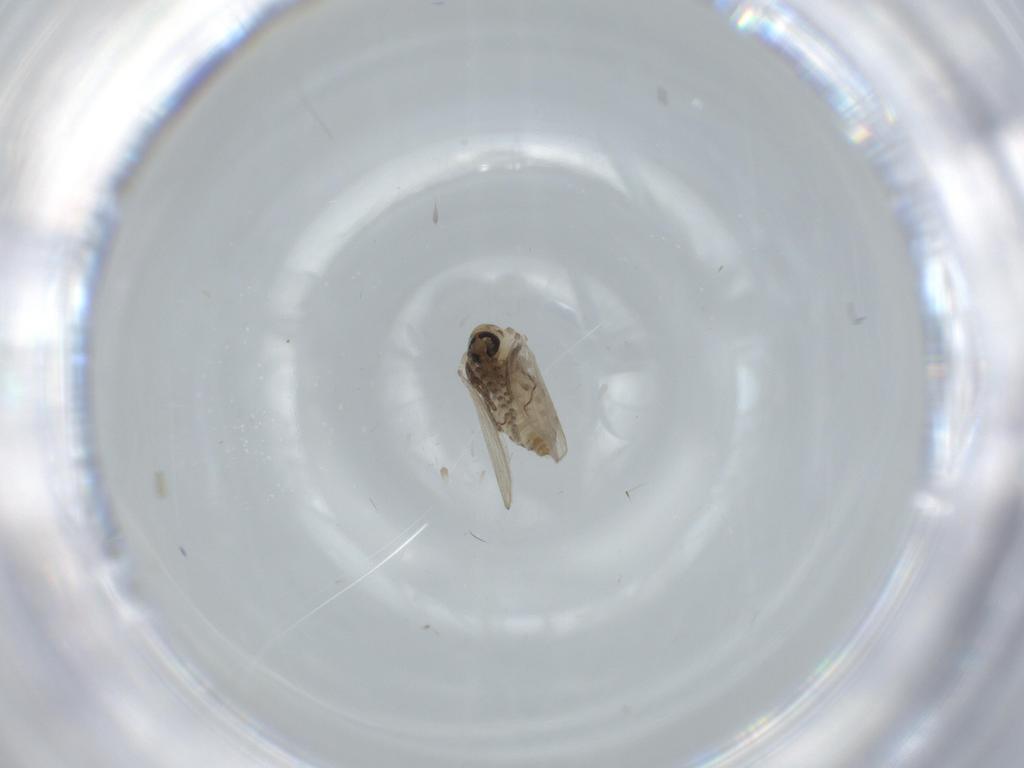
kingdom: Animalia
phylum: Arthropoda
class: Insecta
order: Diptera
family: Psychodidae
